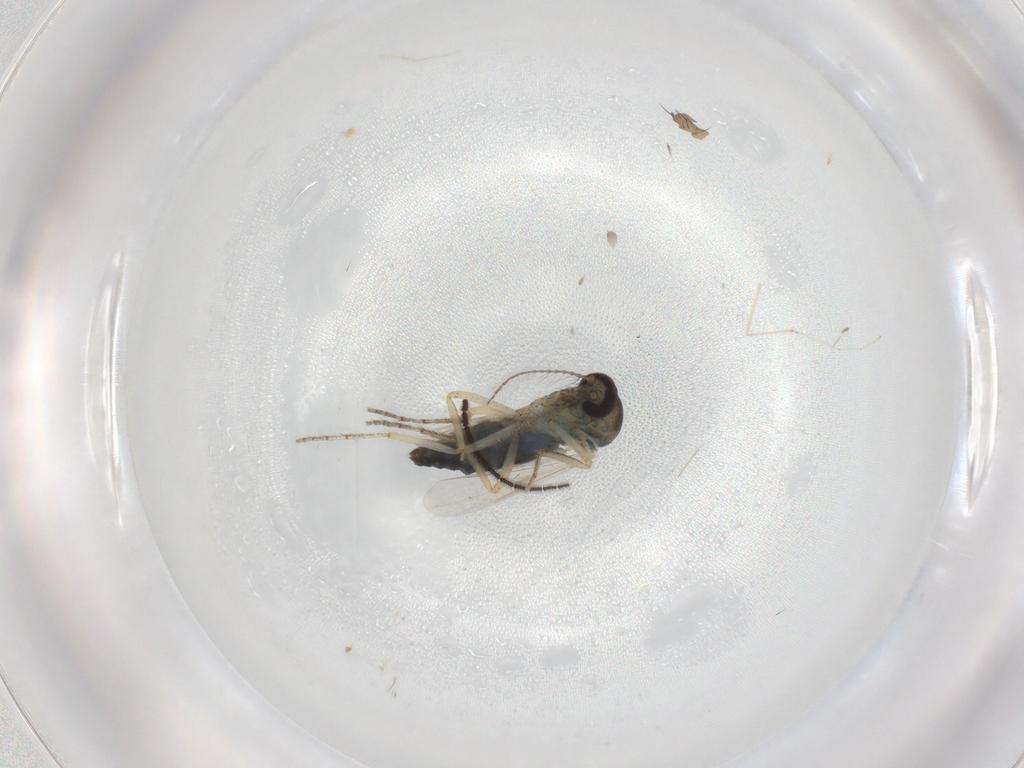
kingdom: Animalia
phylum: Arthropoda
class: Insecta
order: Diptera
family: Ceratopogonidae
